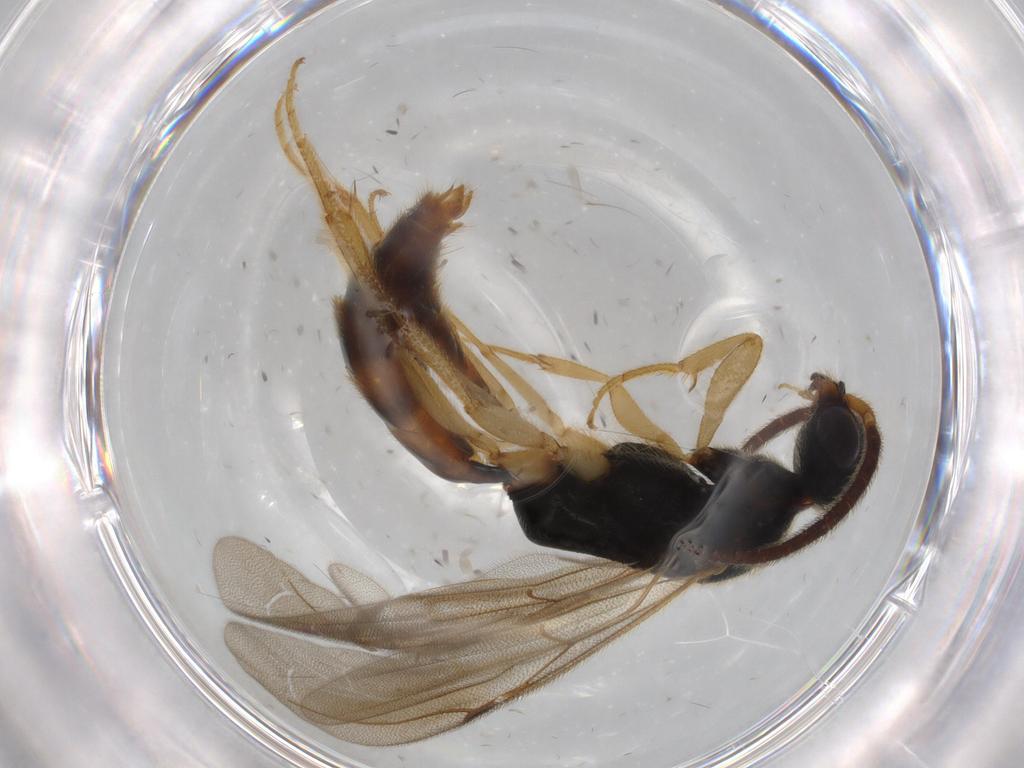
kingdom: Animalia
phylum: Arthropoda
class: Insecta
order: Hymenoptera
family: Bethylidae
